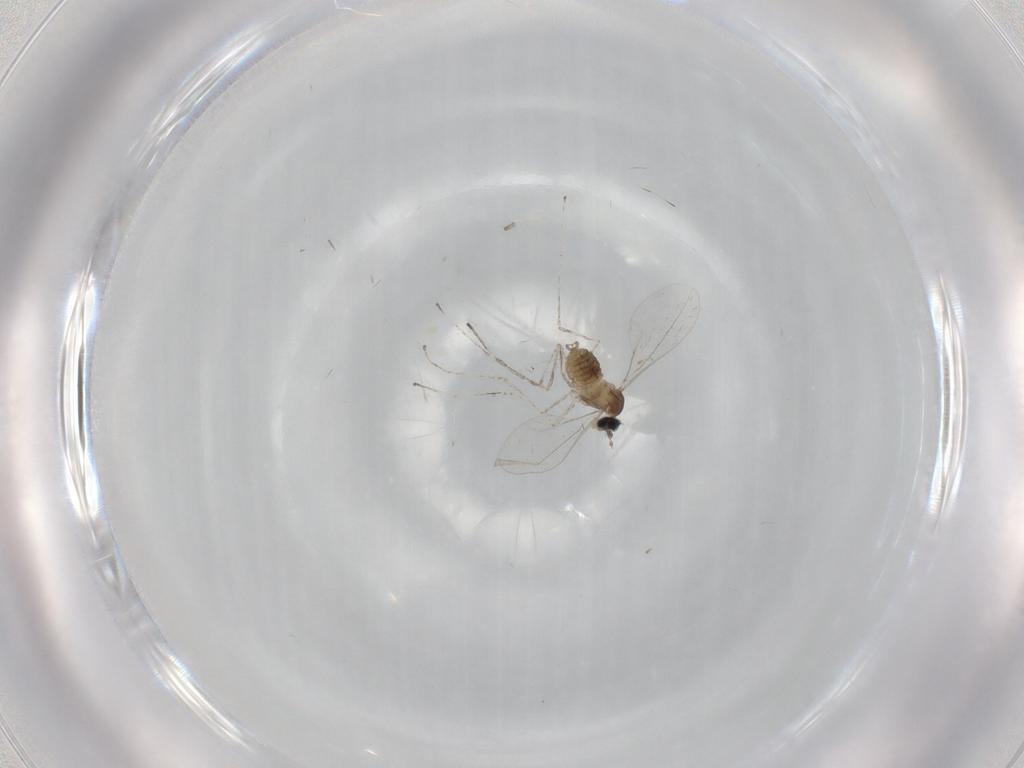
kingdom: Animalia
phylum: Arthropoda
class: Insecta
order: Diptera
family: Cecidomyiidae
